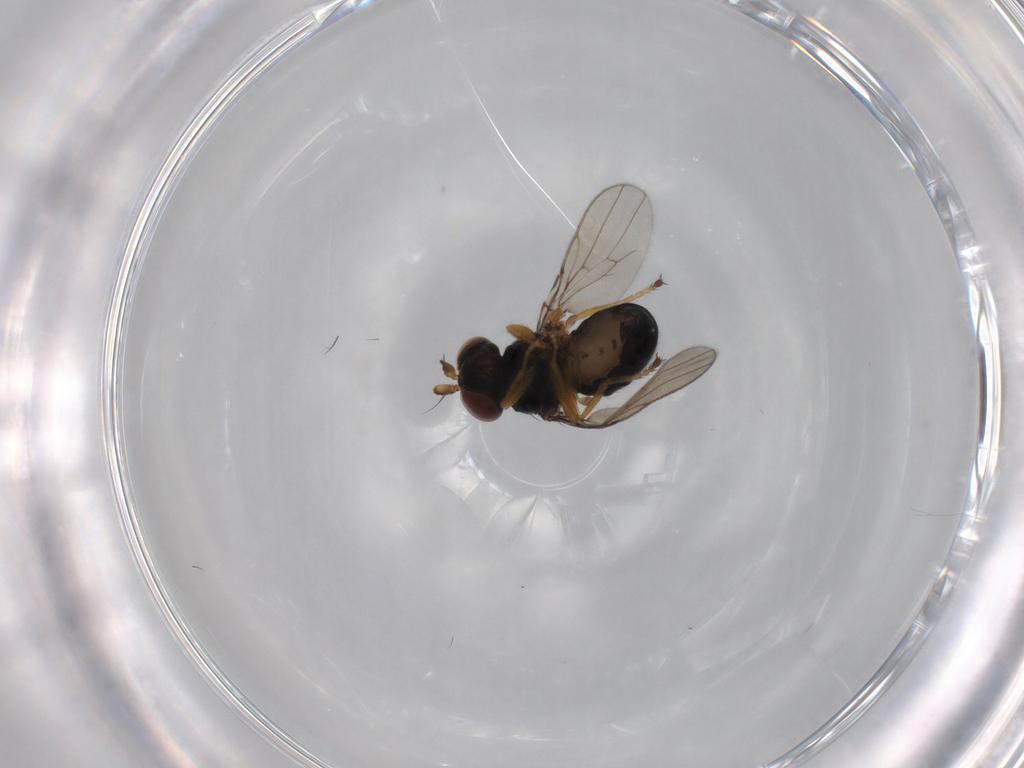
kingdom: Animalia
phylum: Arthropoda
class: Insecta
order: Diptera
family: Ephydridae
